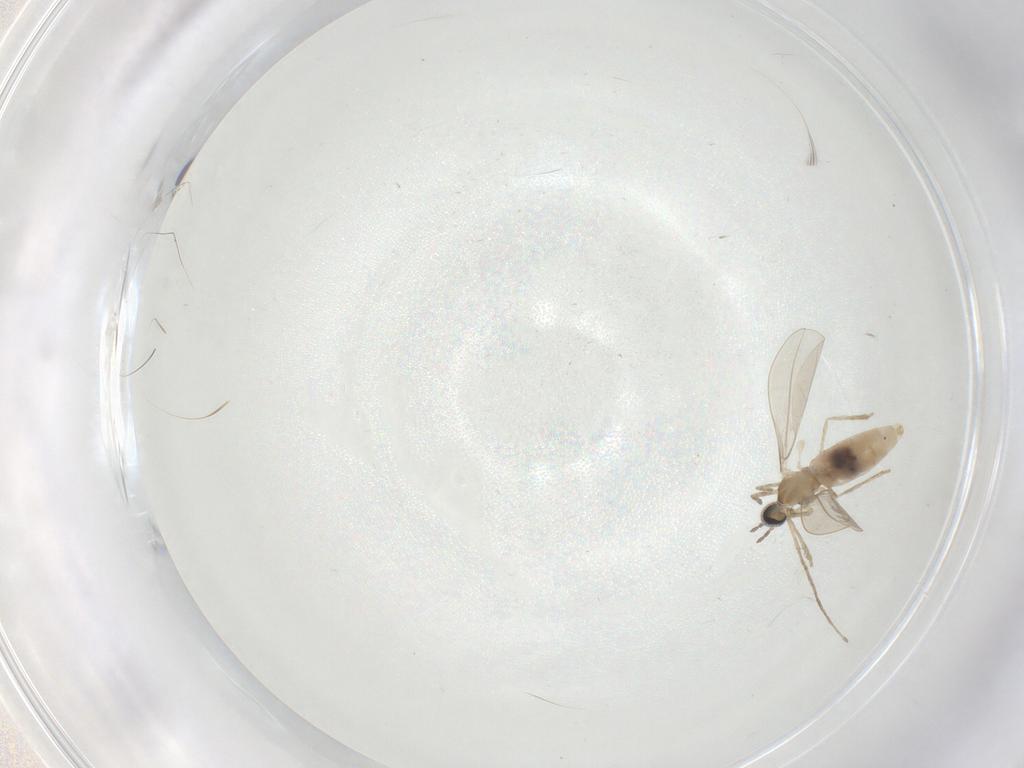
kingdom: Animalia
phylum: Arthropoda
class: Insecta
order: Diptera
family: Cecidomyiidae
